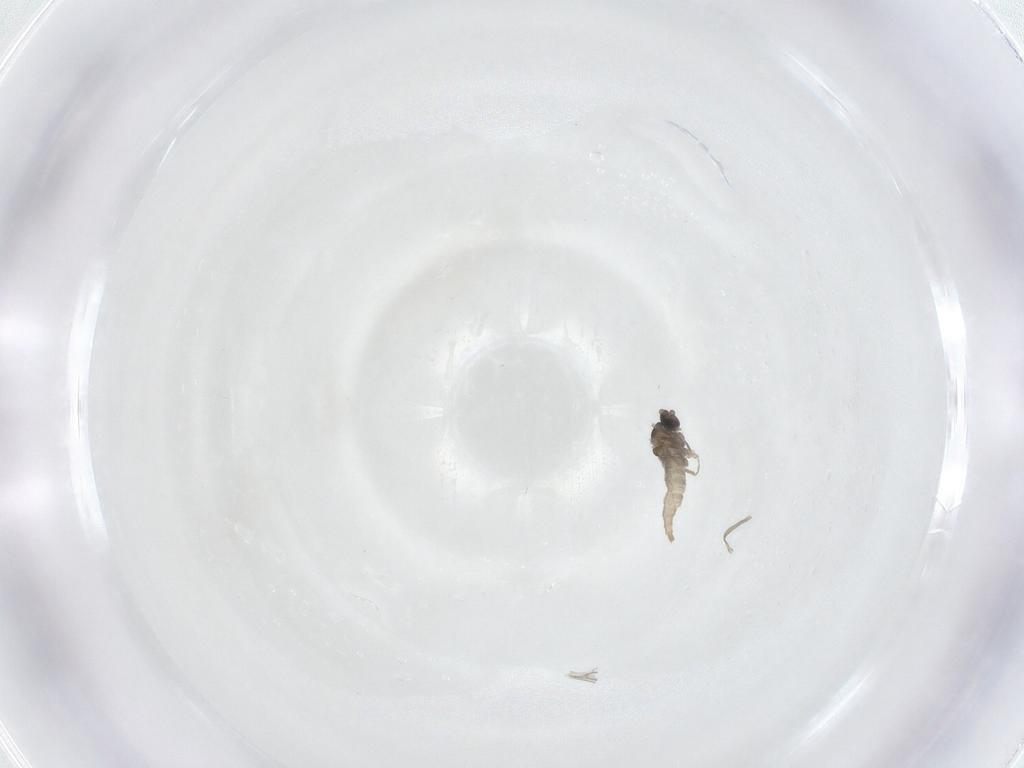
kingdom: Animalia
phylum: Arthropoda
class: Insecta
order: Diptera
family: Cecidomyiidae
